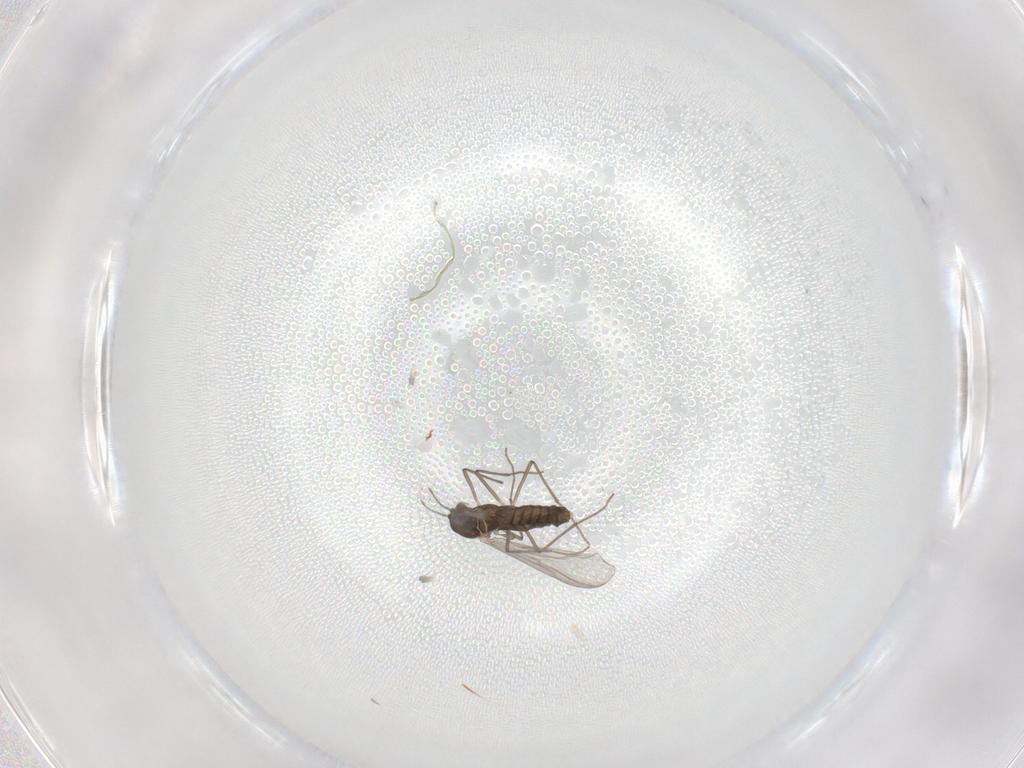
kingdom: Animalia
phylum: Arthropoda
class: Insecta
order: Diptera
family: Chironomidae
